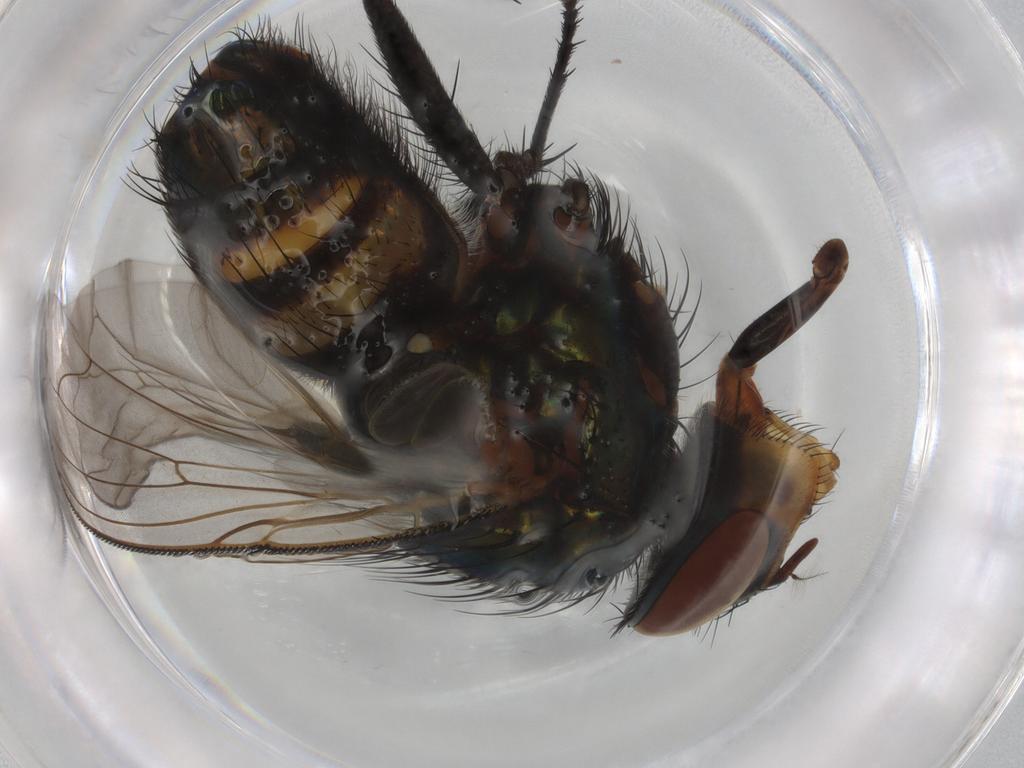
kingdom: Animalia
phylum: Arthropoda
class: Insecta
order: Diptera
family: Calliphoridae
